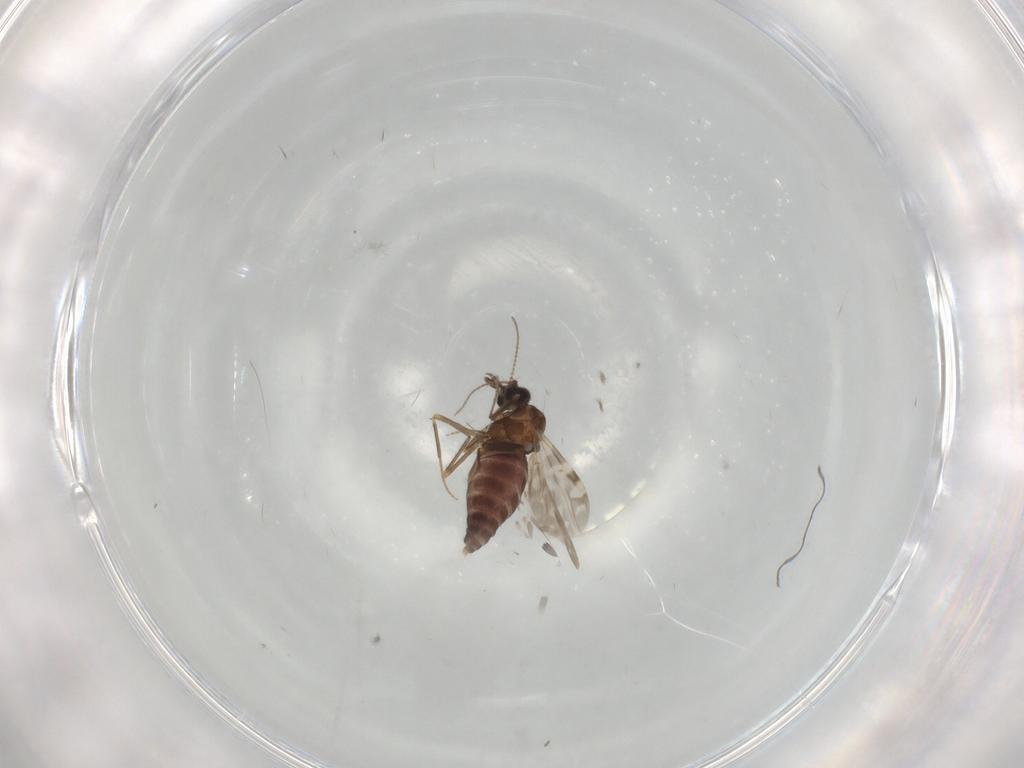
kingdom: Animalia
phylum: Arthropoda
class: Insecta
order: Diptera
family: Ceratopogonidae
